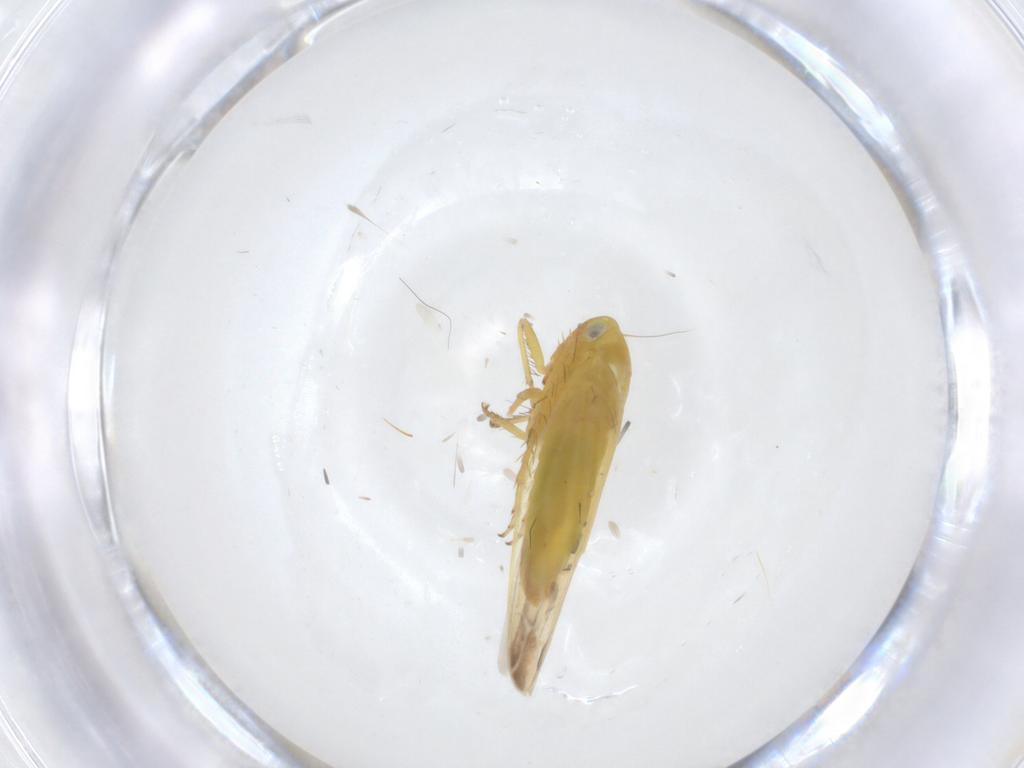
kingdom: Animalia
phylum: Arthropoda
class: Insecta
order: Hemiptera
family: Cicadellidae
